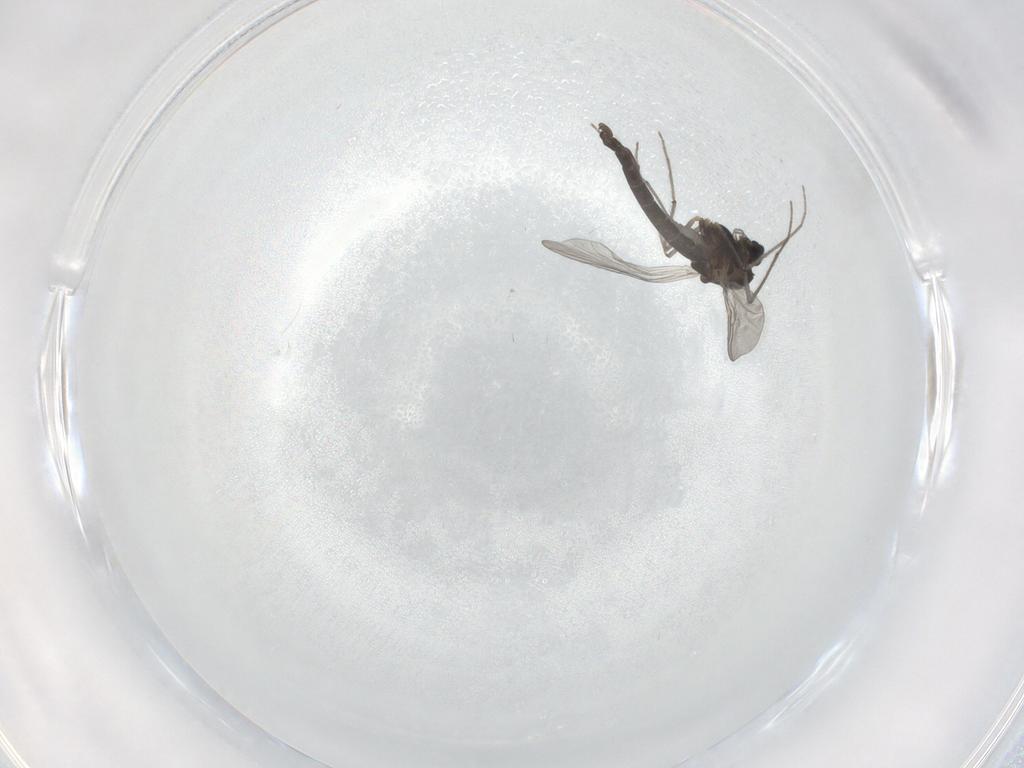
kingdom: Animalia
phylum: Arthropoda
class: Insecta
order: Diptera
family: Chironomidae
